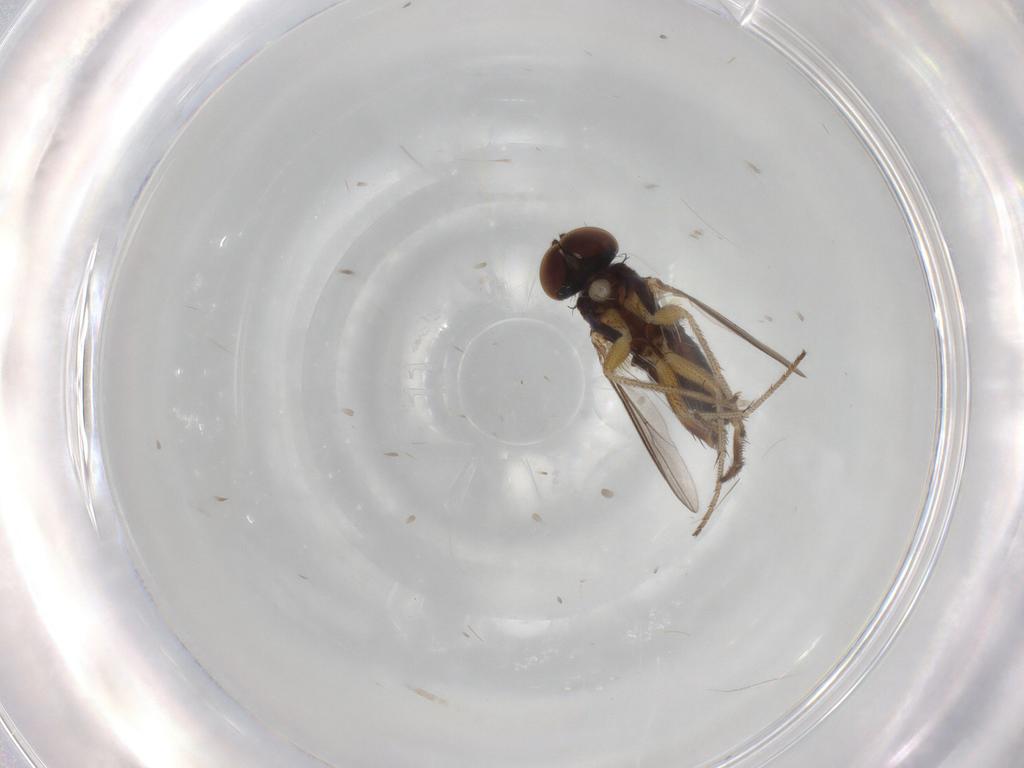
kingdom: Animalia
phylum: Arthropoda
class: Insecta
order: Diptera
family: Cecidomyiidae
